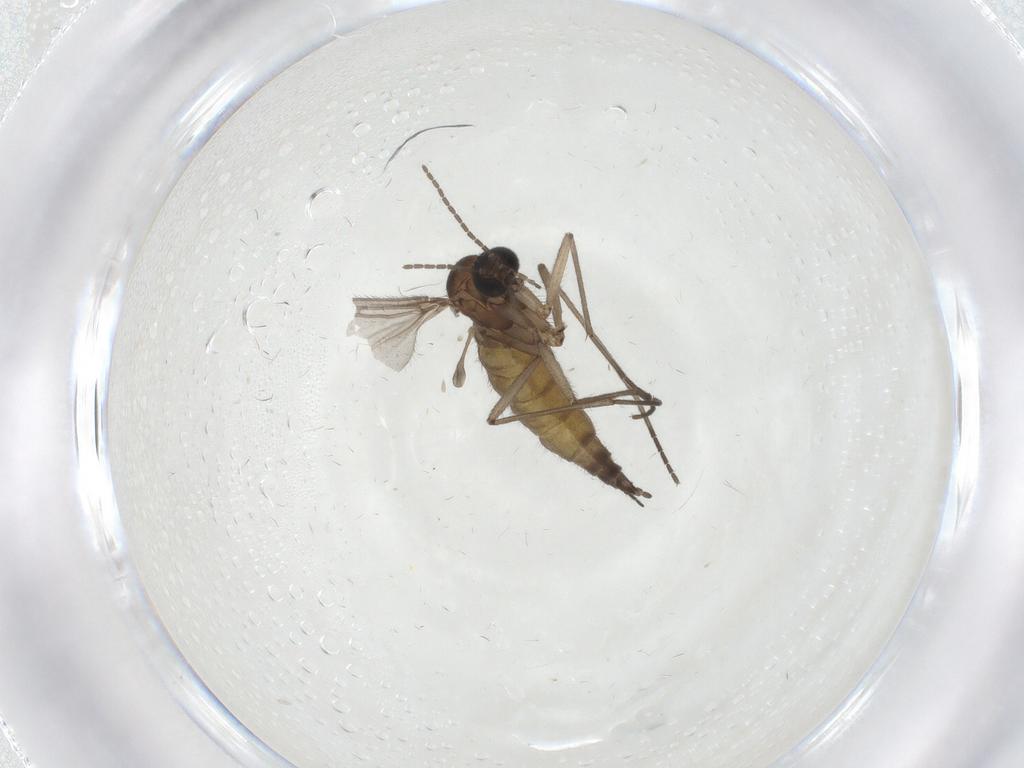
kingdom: Animalia
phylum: Arthropoda
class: Insecta
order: Diptera
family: Sciaridae
